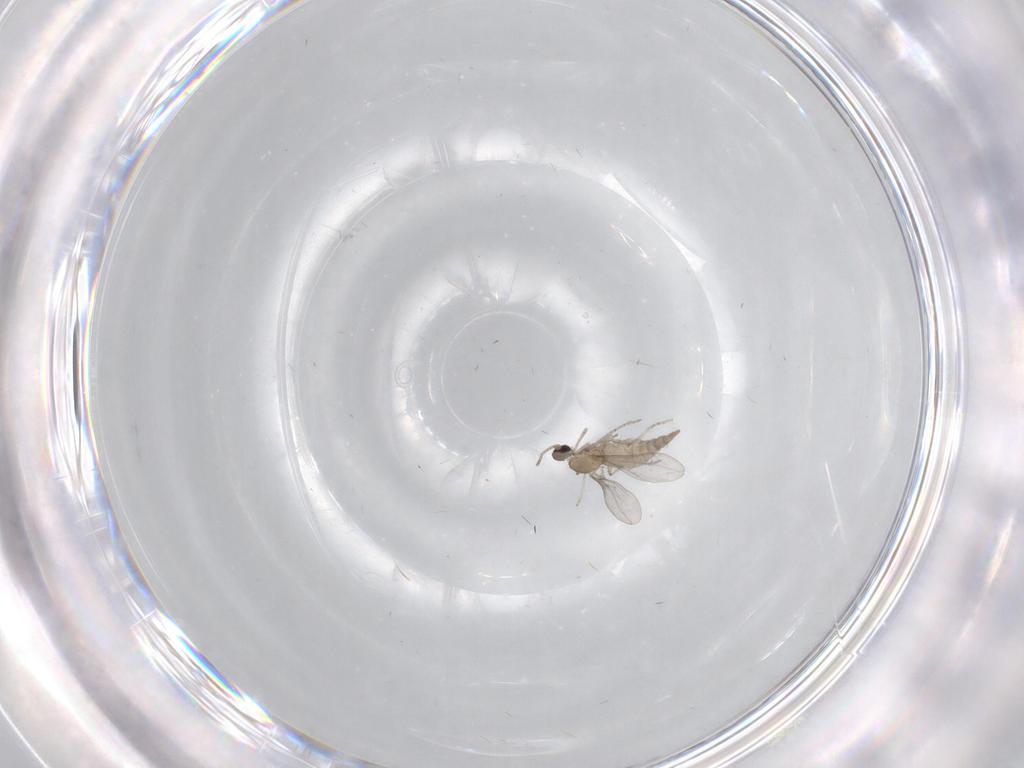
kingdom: Animalia
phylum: Arthropoda
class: Insecta
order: Diptera
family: Cecidomyiidae
